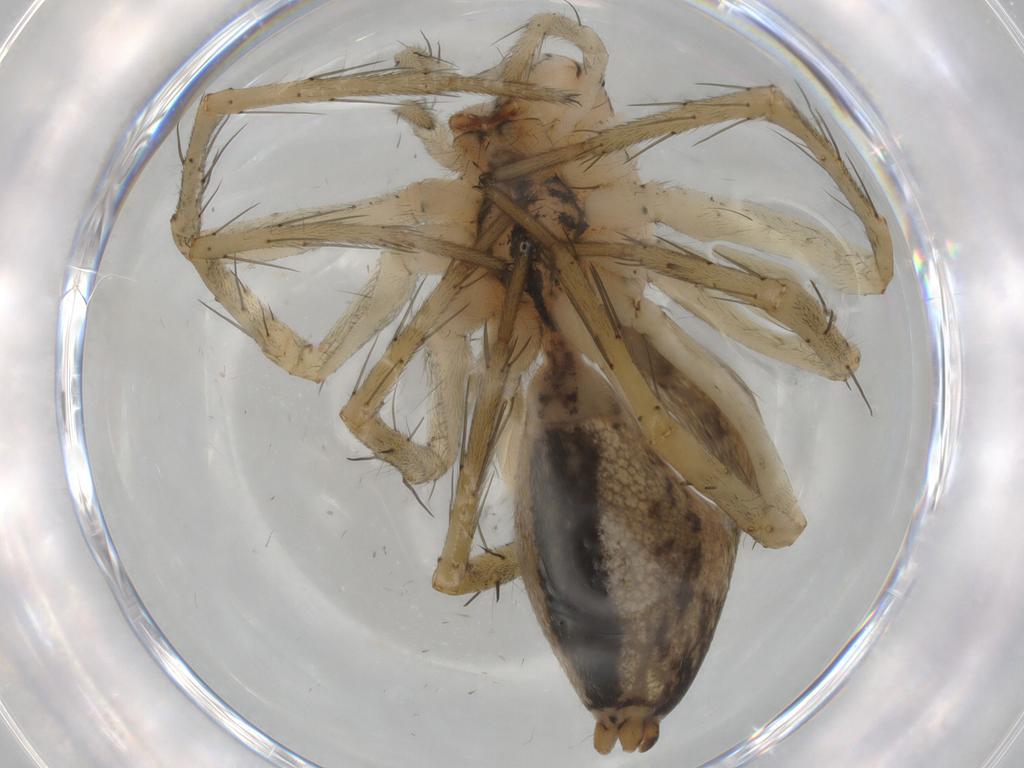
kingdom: Animalia
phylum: Arthropoda
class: Arachnida
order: Araneae
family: Oxyopidae
